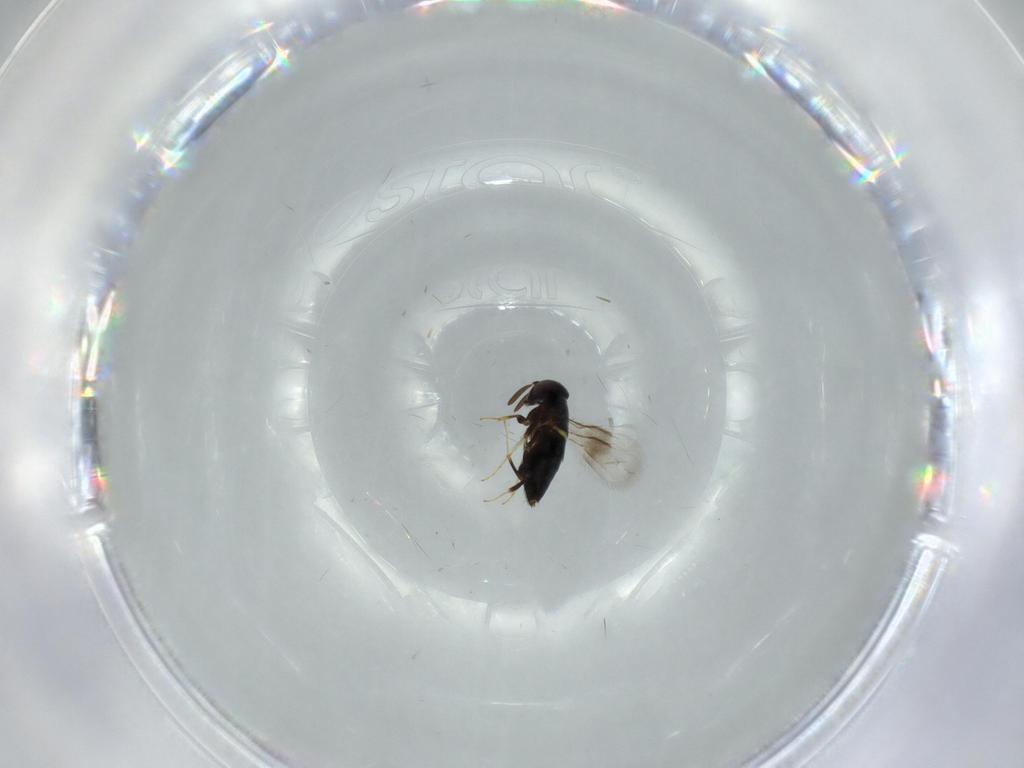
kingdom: Animalia
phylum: Arthropoda
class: Insecta
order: Hymenoptera
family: Signiphoridae
